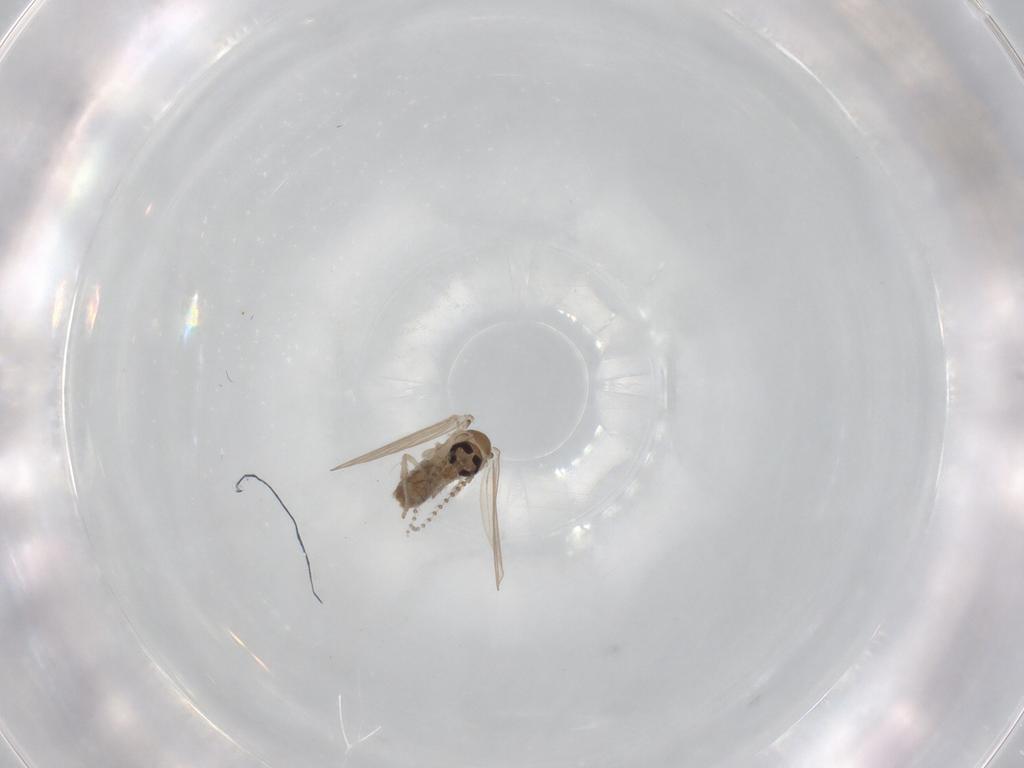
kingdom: Animalia
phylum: Arthropoda
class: Insecta
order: Diptera
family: Psychodidae
